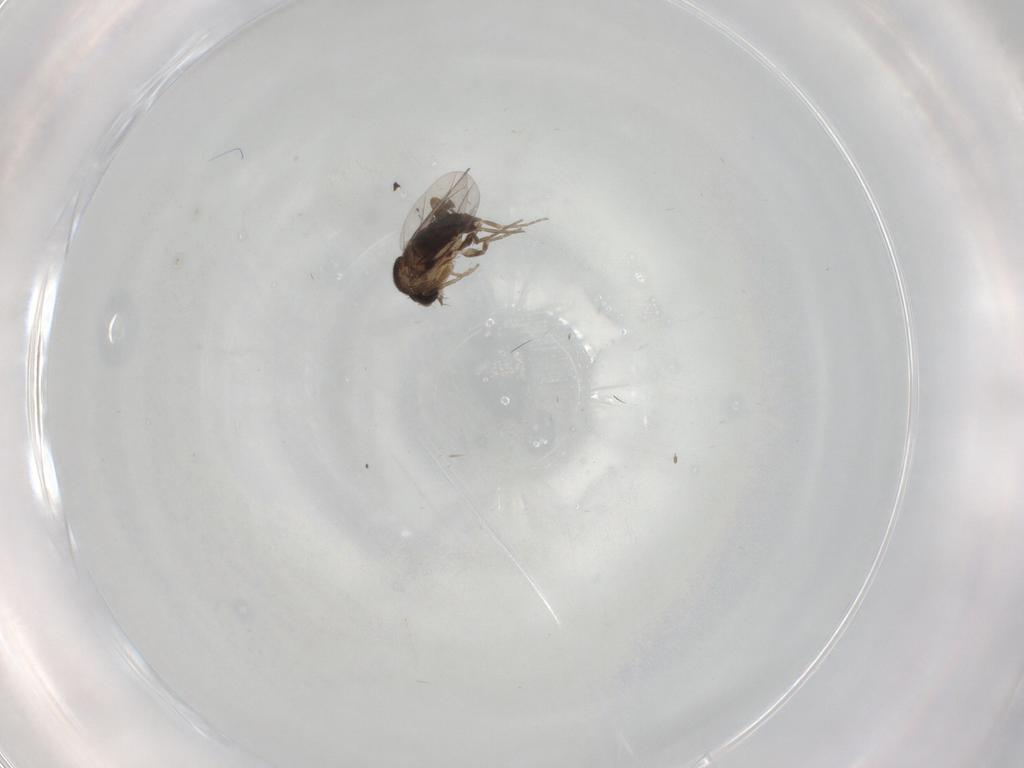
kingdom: Animalia
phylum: Arthropoda
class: Insecta
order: Diptera
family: Chironomidae
